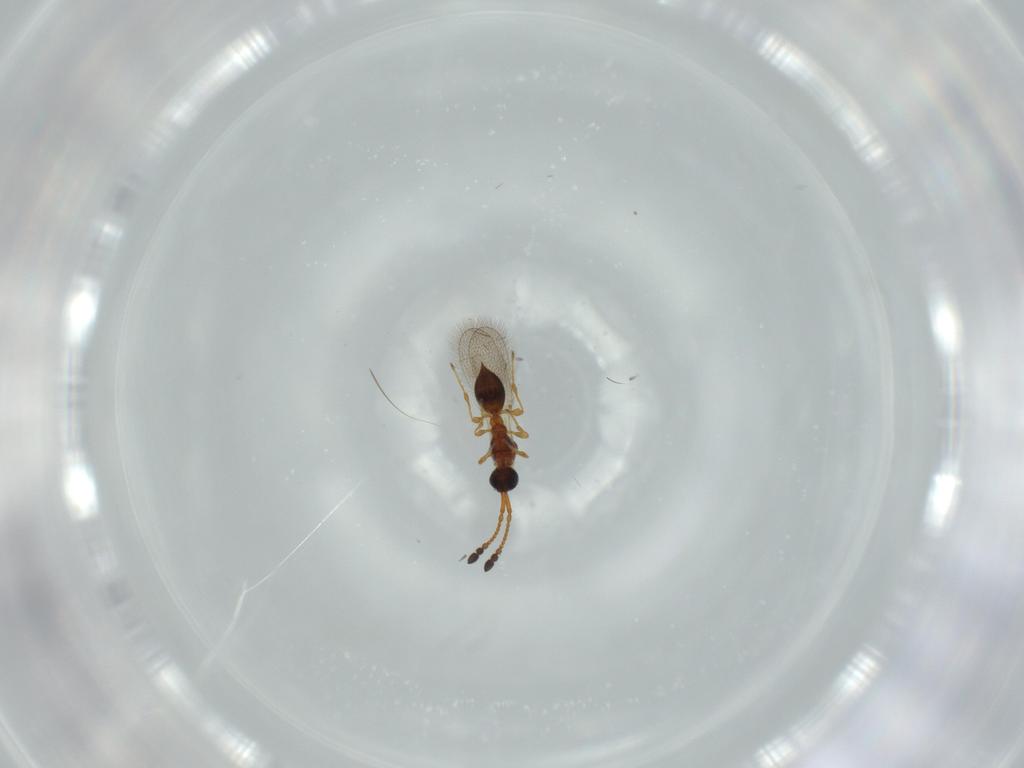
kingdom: Animalia
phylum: Arthropoda
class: Insecta
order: Hymenoptera
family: Diapriidae
